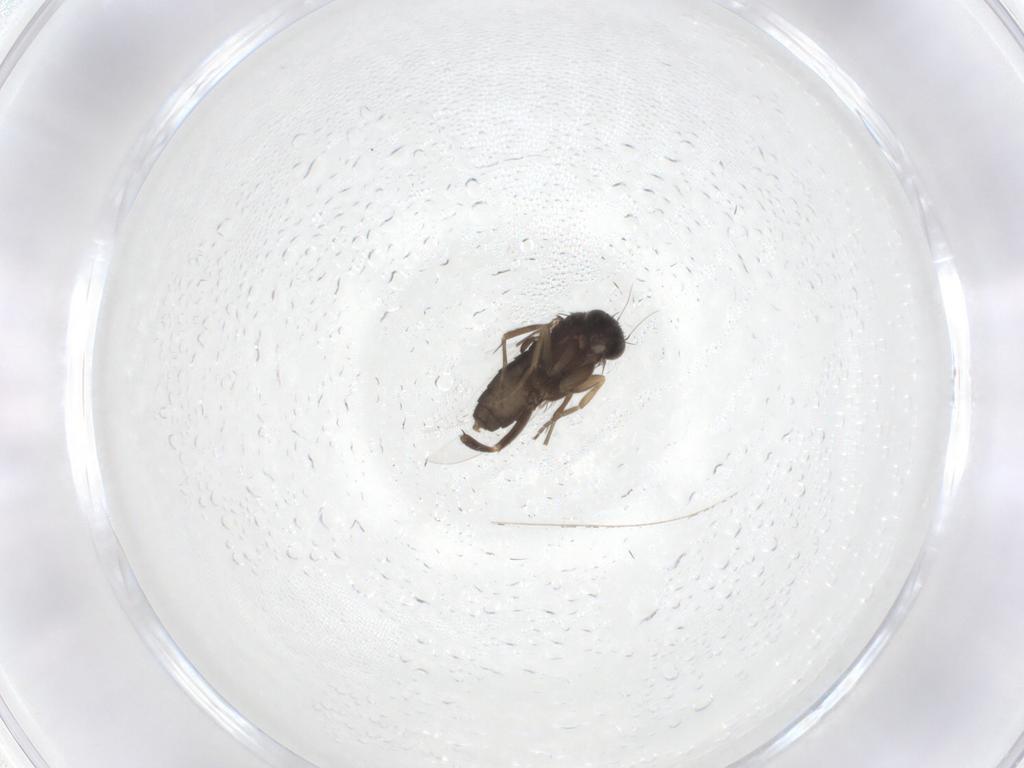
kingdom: Animalia
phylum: Arthropoda
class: Insecta
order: Diptera
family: Phoridae
